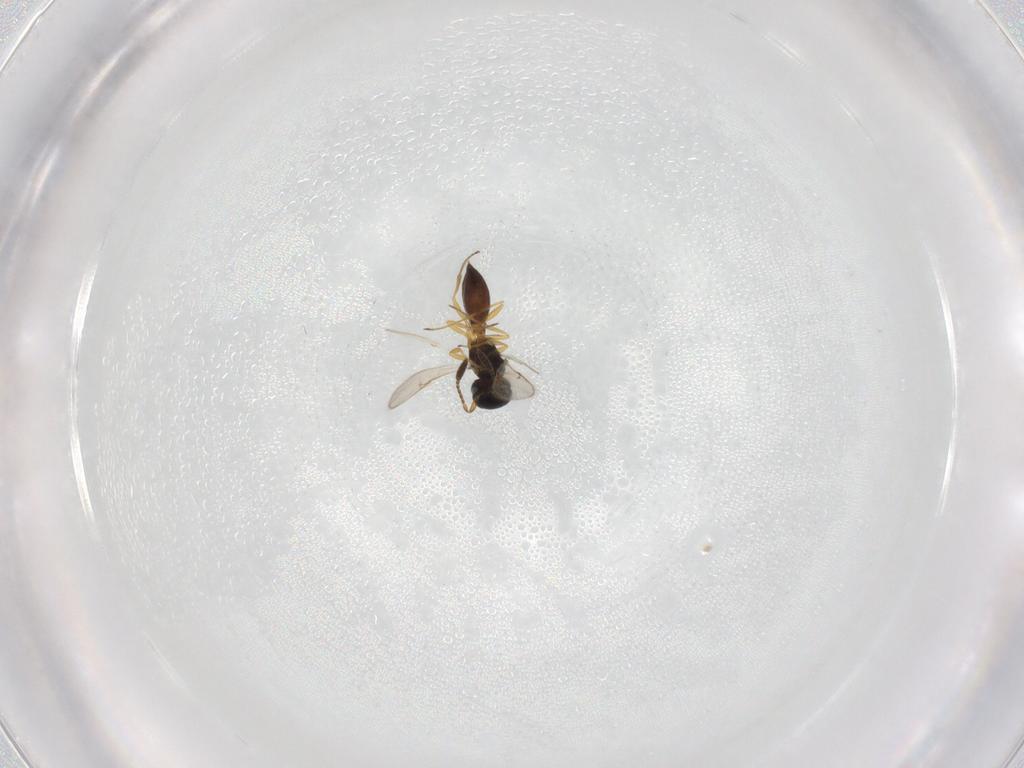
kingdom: Animalia
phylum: Arthropoda
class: Insecta
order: Hymenoptera
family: Scelionidae
